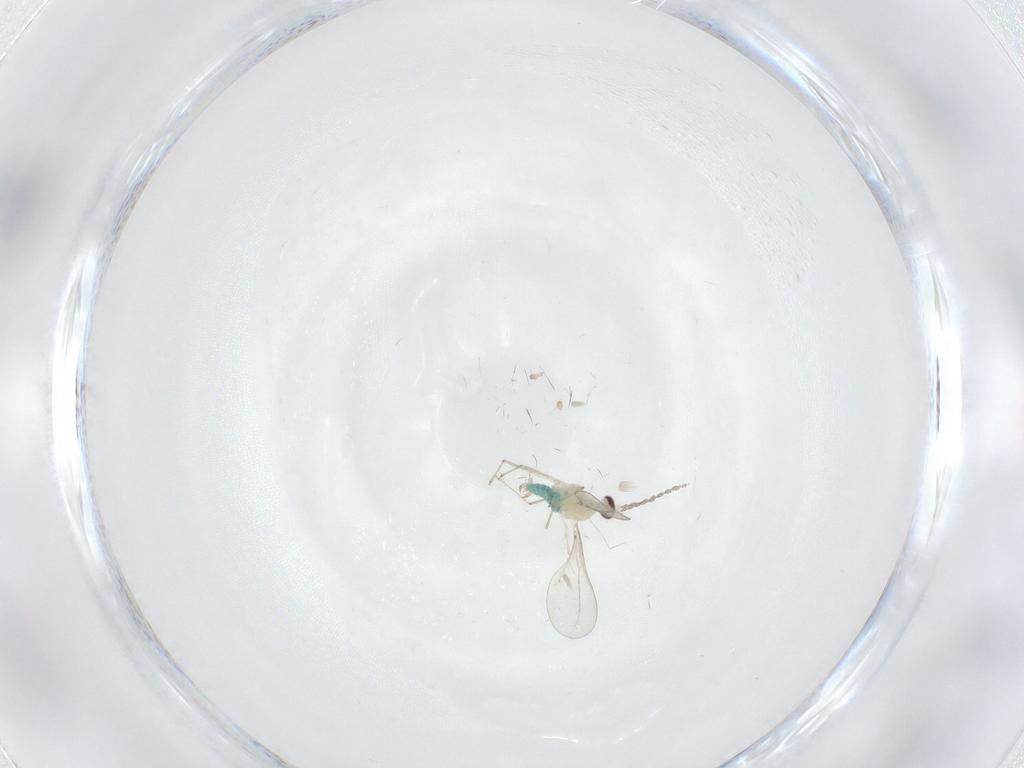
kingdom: Animalia
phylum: Arthropoda
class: Insecta
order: Diptera
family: Cecidomyiidae
